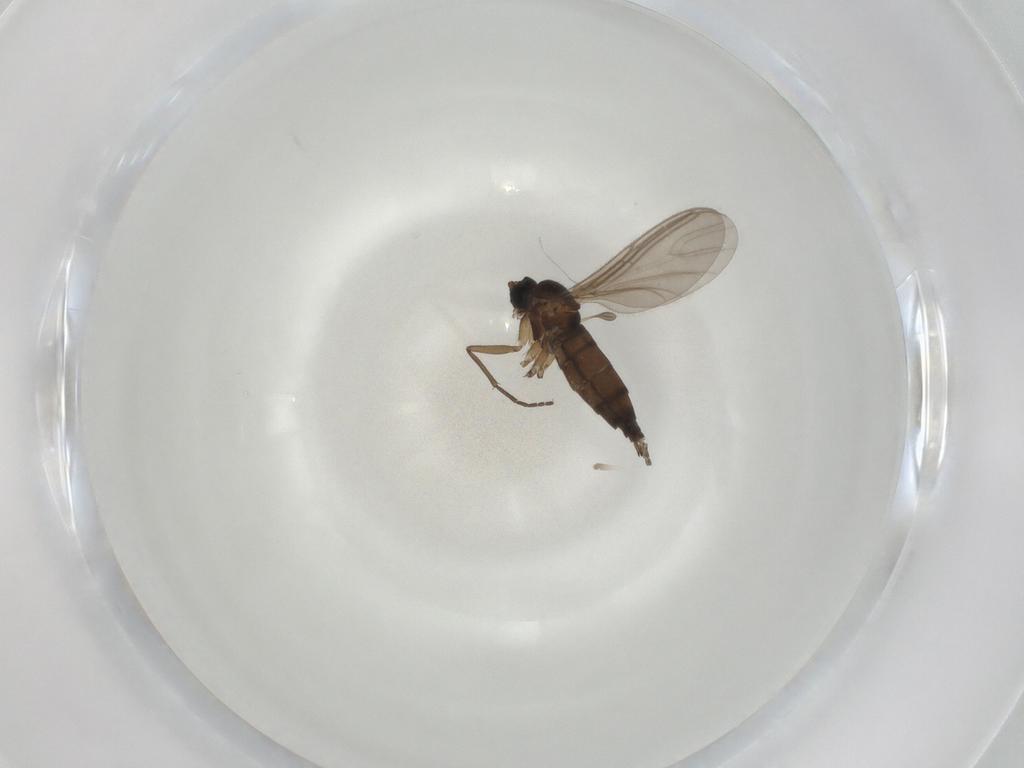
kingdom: Animalia
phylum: Arthropoda
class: Insecta
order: Diptera
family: Sciaridae
